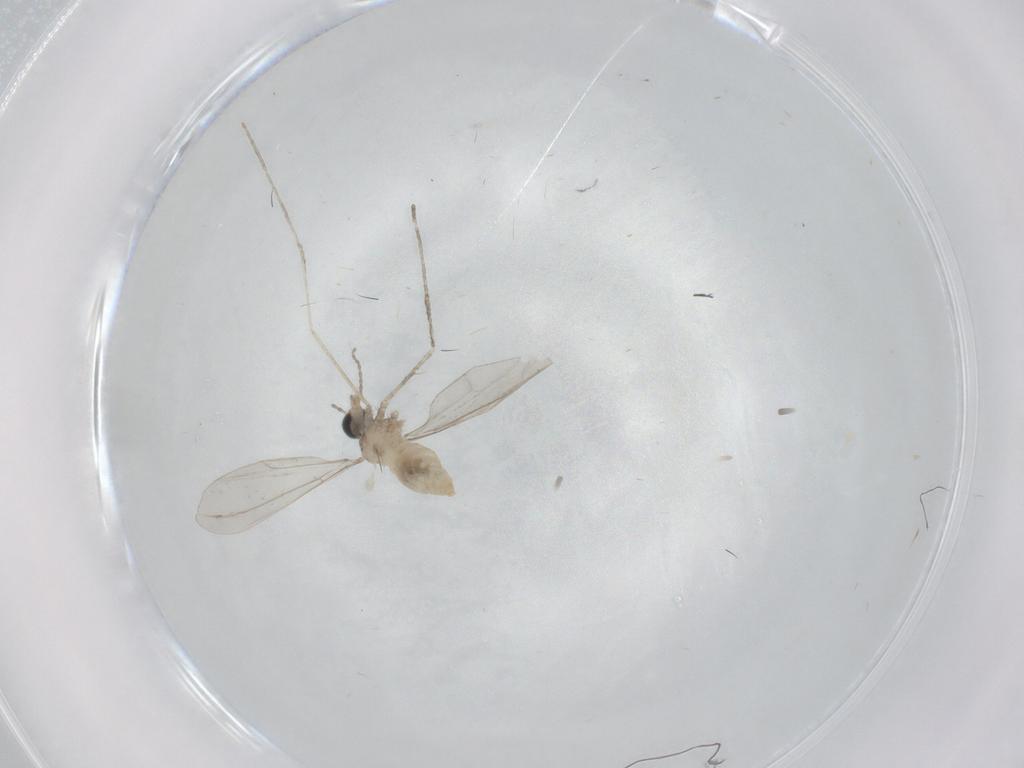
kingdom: Animalia
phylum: Arthropoda
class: Insecta
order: Diptera
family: Cecidomyiidae
